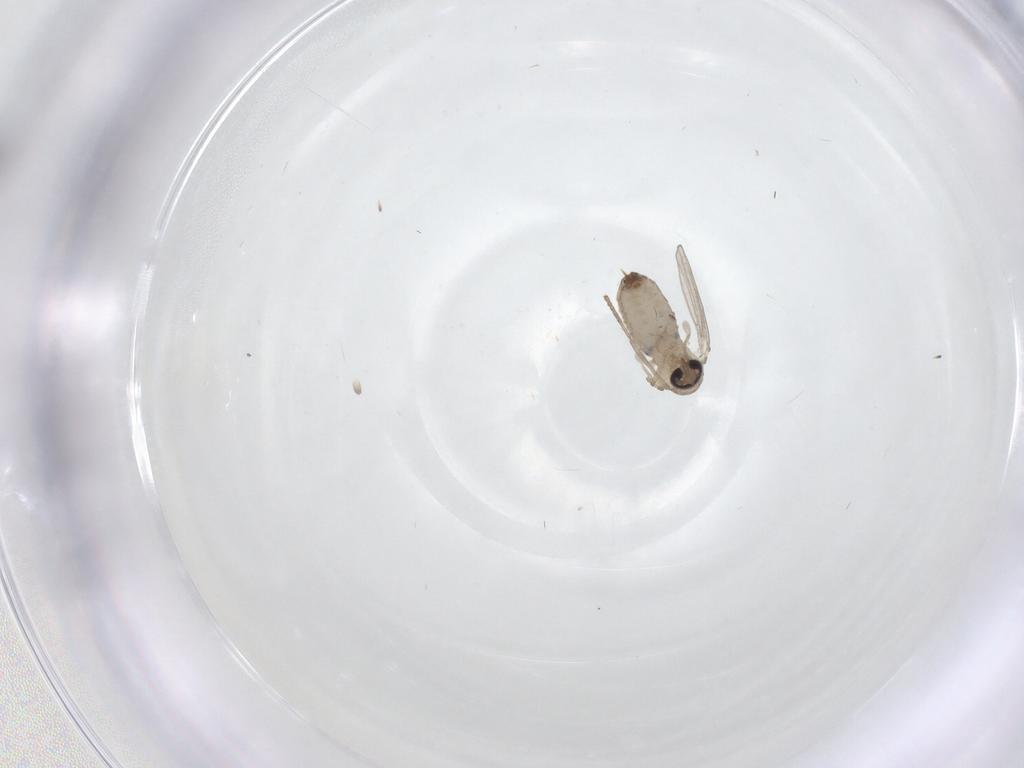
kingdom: Animalia
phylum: Arthropoda
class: Insecta
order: Diptera
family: Psychodidae
